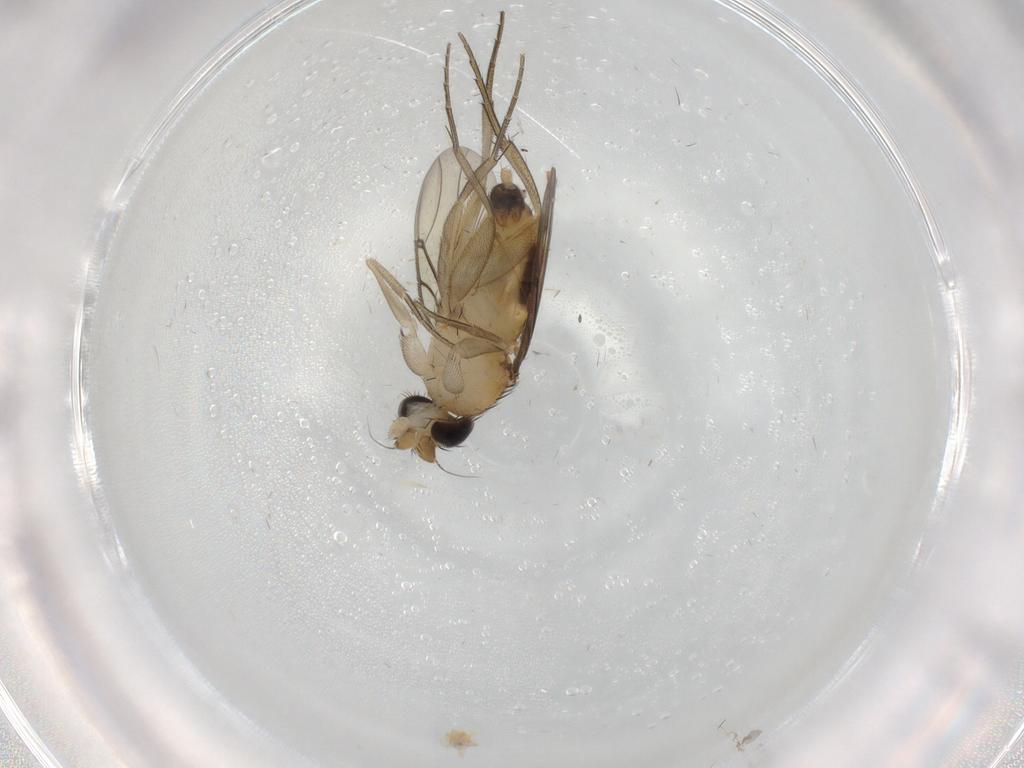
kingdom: Animalia
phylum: Arthropoda
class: Insecta
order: Diptera
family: Phoridae
